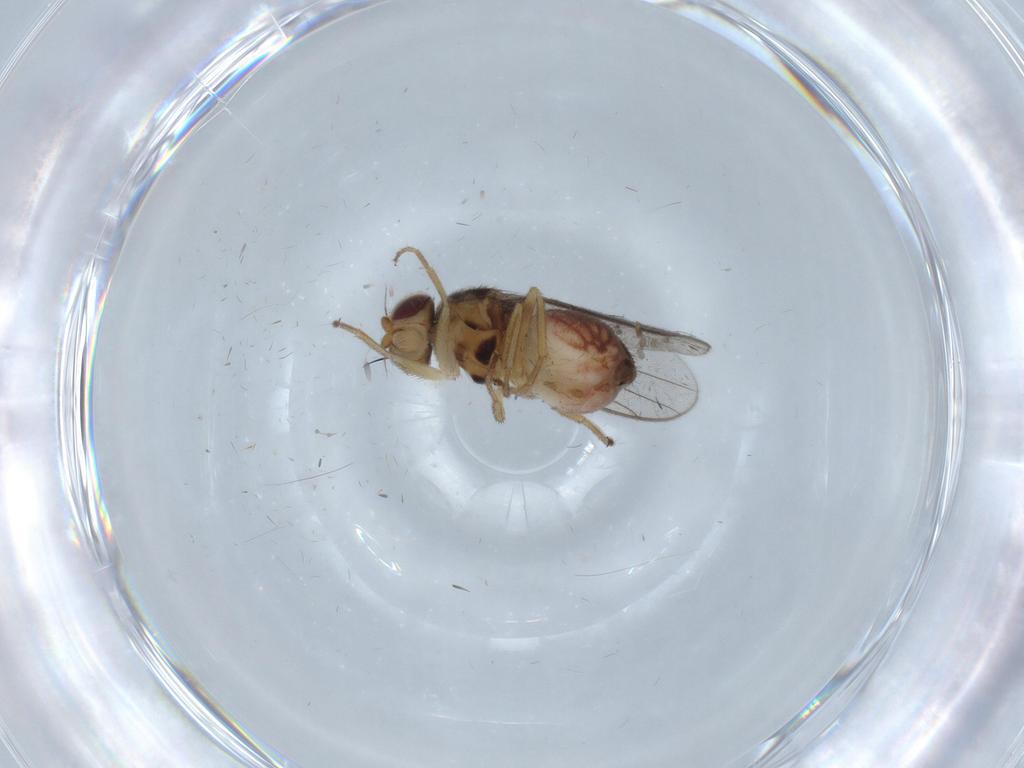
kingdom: Animalia
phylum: Arthropoda
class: Insecta
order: Diptera
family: Chloropidae
